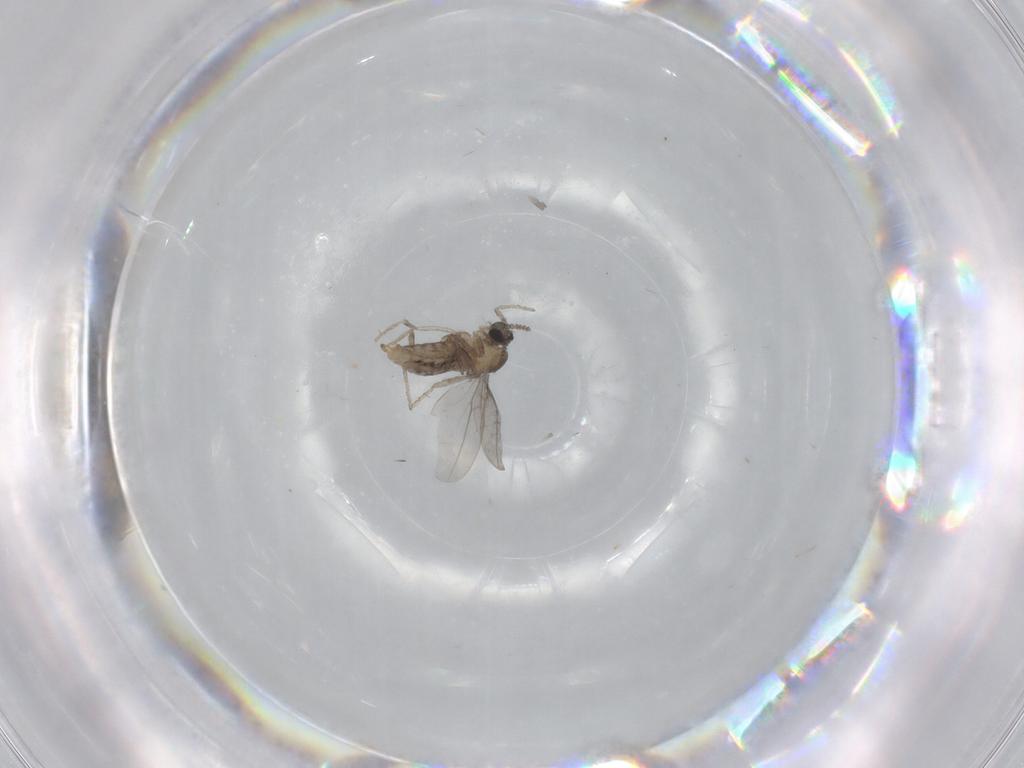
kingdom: Animalia
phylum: Arthropoda
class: Insecta
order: Diptera
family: Cecidomyiidae
